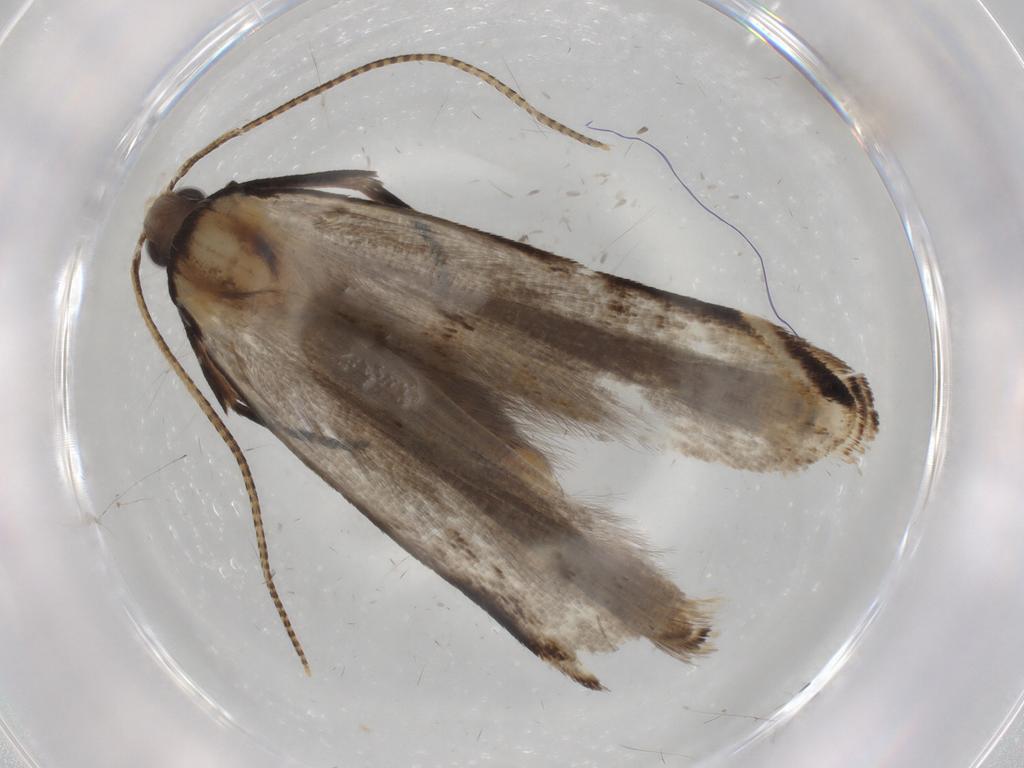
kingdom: Animalia
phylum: Arthropoda
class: Insecta
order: Lepidoptera
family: Gelechiidae
